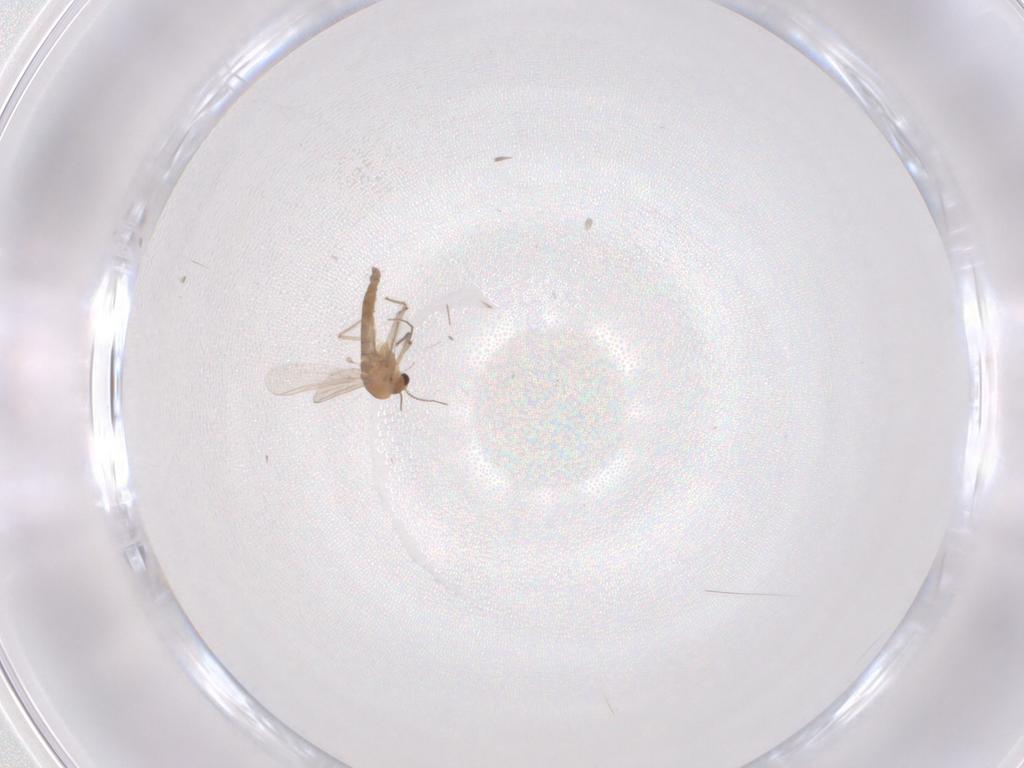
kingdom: Animalia
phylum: Arthropoda
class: Insecta
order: Diptera
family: Chironomidae
